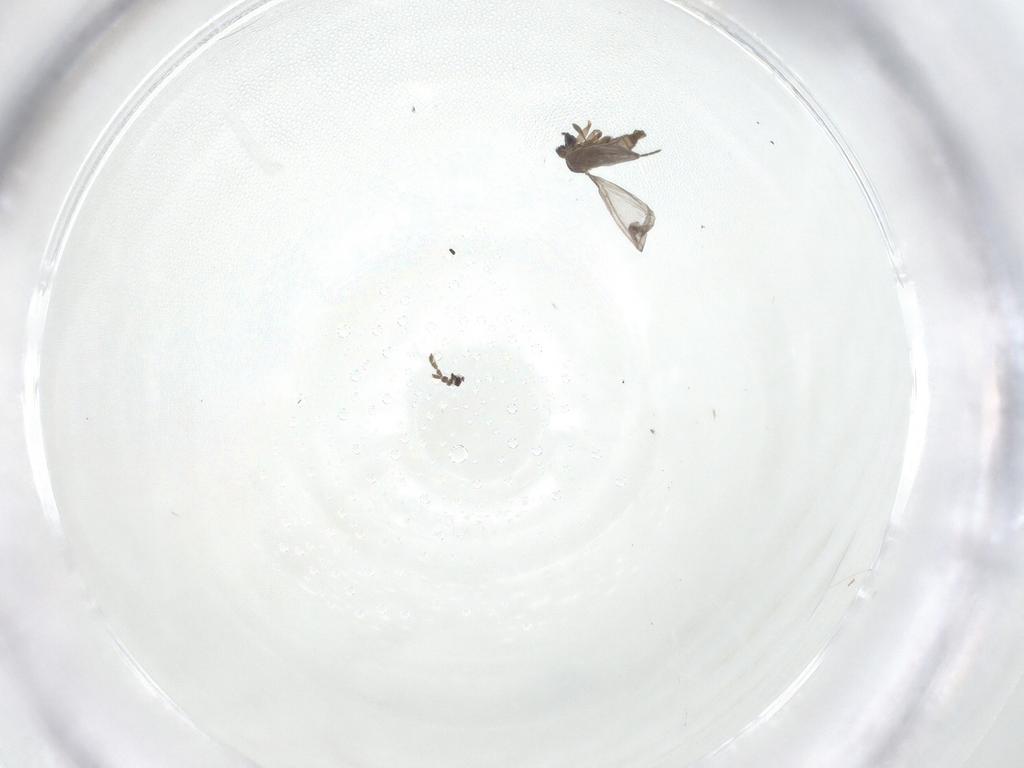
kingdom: Animalia
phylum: Arthropoda
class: Insecta
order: Diptera
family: Sciaridae
